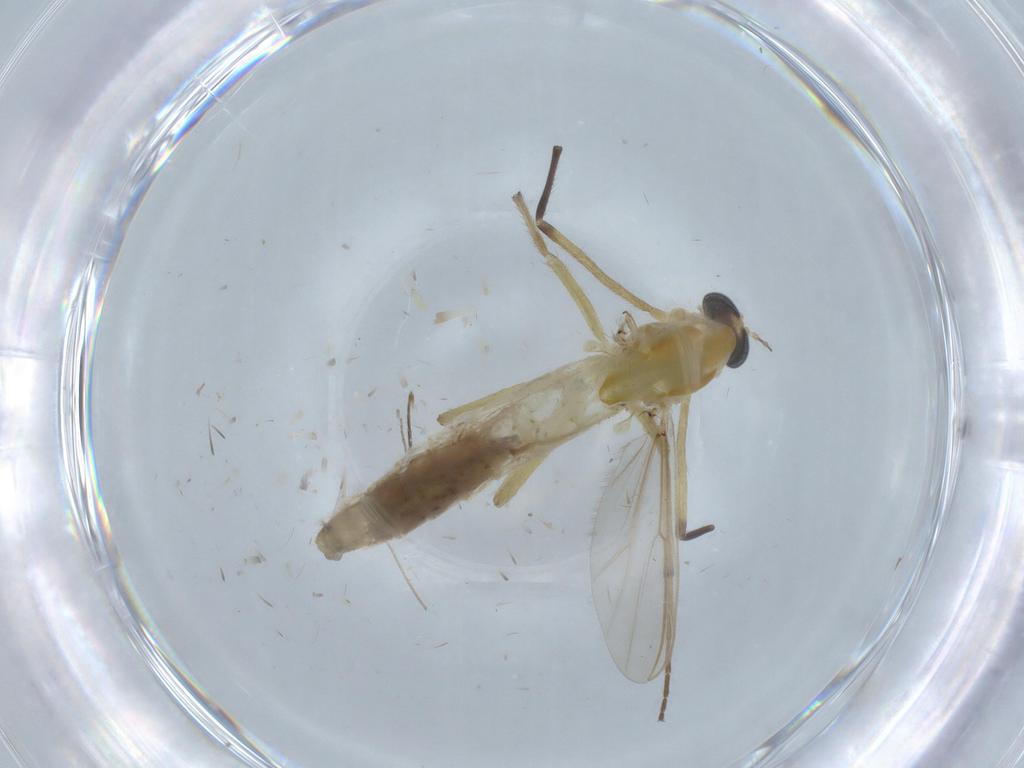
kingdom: Animalia
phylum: Arthropoda
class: Insecta
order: Diptera
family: Cecidomyiidae
